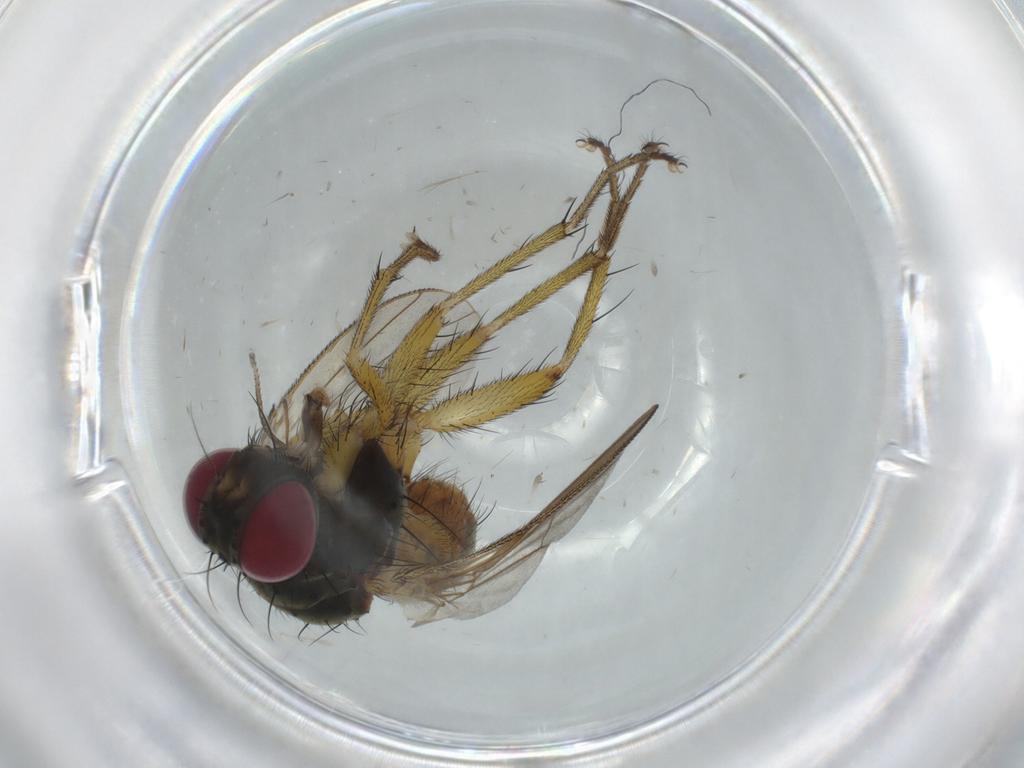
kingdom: Animalia
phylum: Arthropoda
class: Insecta
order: Diptera
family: Muscidae
